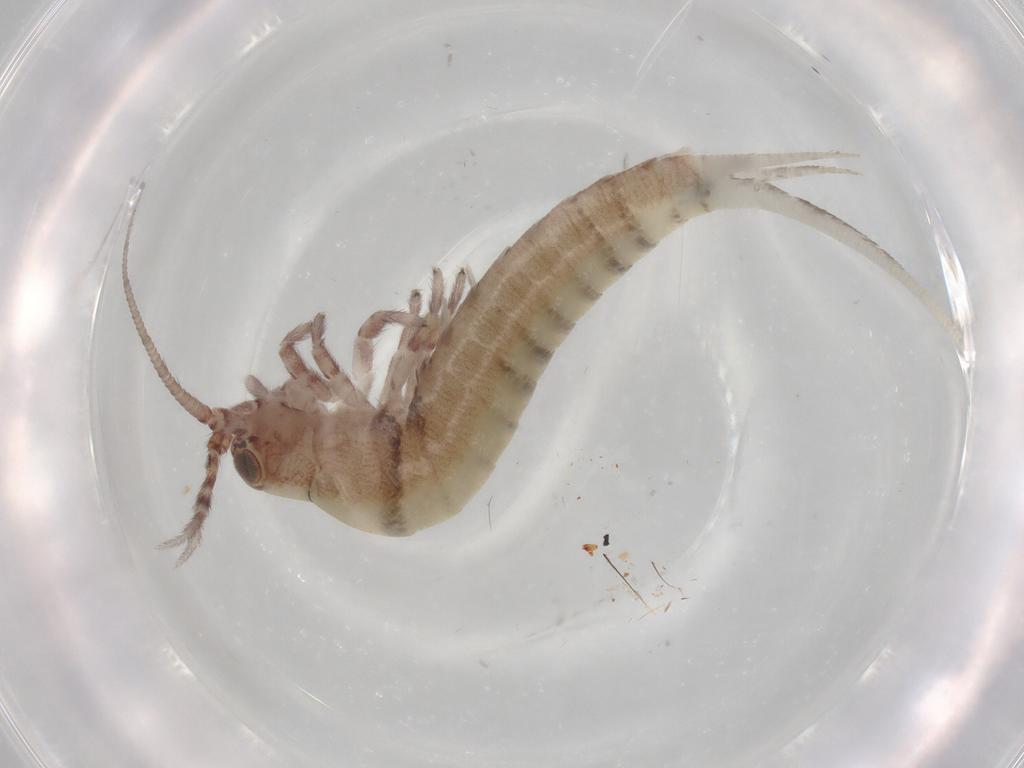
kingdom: Animalia
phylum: Arthropoda
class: Insecta
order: Archaeognatha
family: Machilidae
